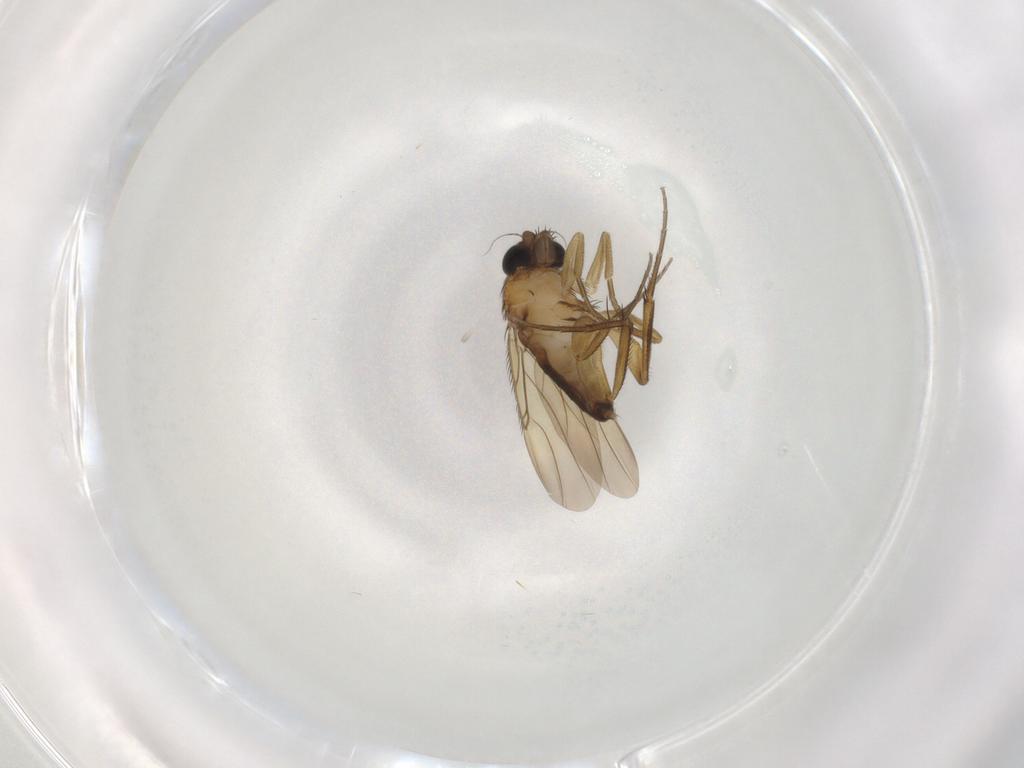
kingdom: Animalia
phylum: Arthropoda
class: Insecta
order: Diptera
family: Phoridae
